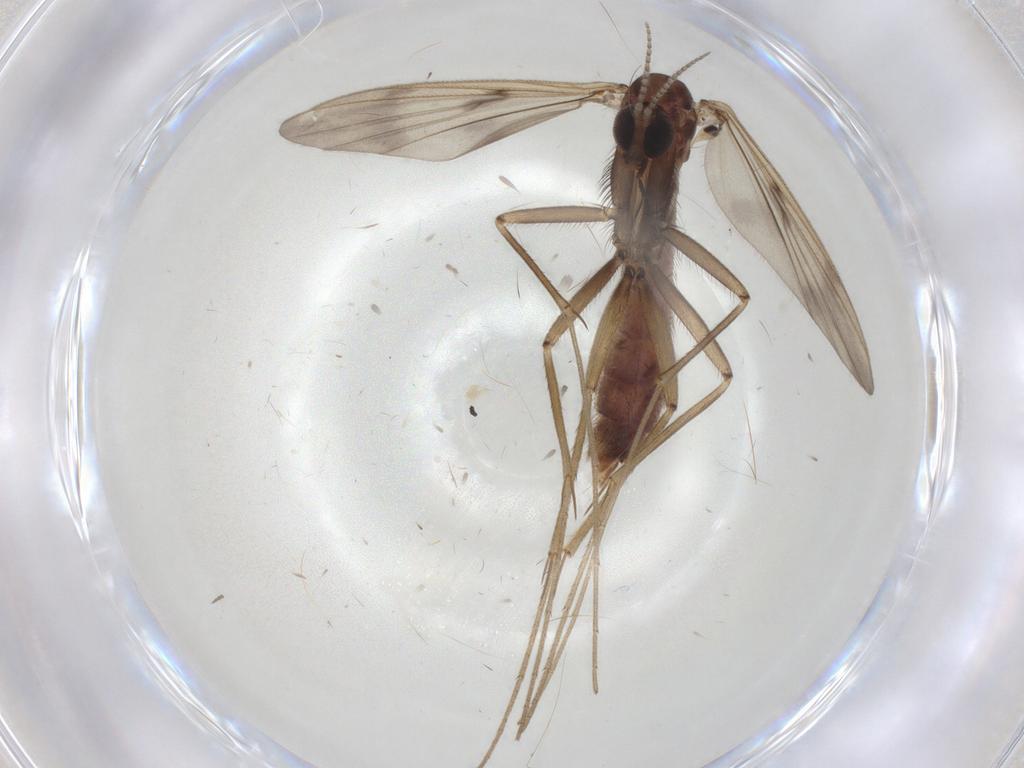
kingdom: Animalia
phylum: Arthropoda
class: Insecta
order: Diptera
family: Mycetophilidae
